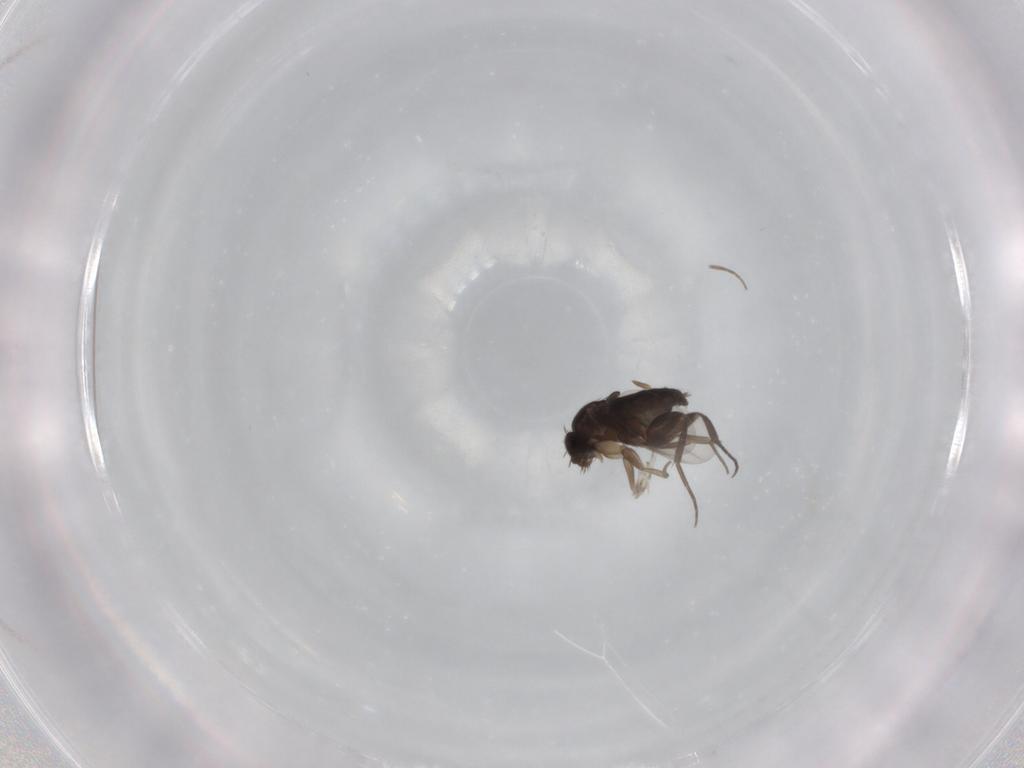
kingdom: Animalia
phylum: Arthropoda
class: Insecta
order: Diptera
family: Phoridae
